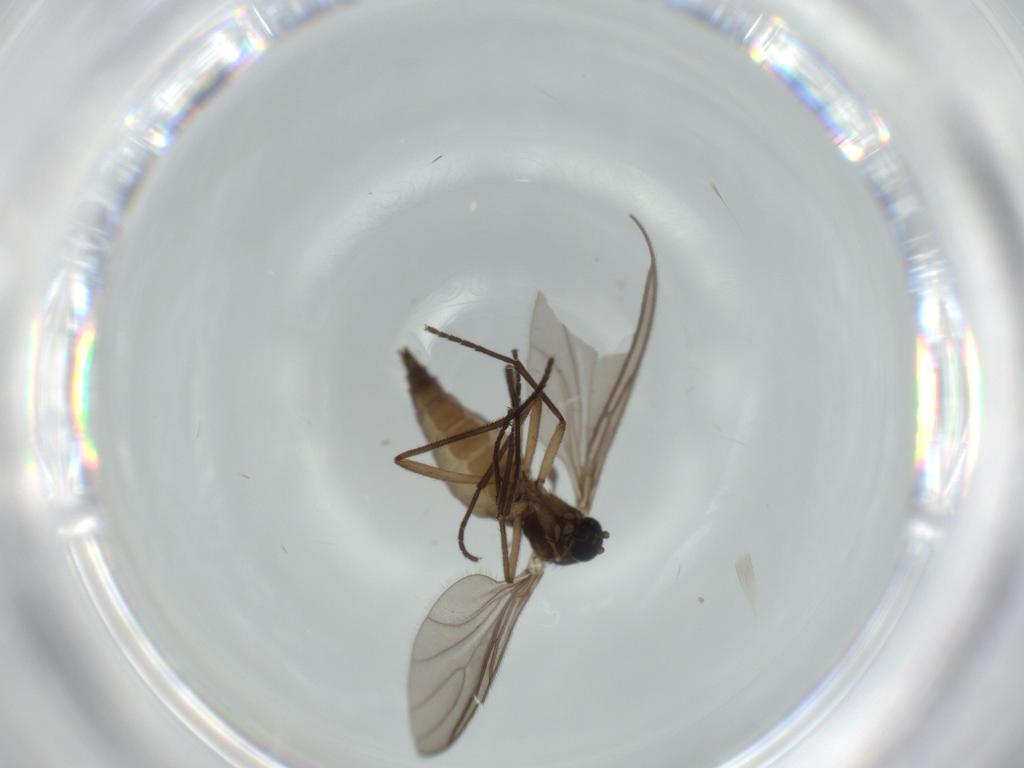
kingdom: Animalia
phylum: Arthropoda
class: Insecta
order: Diptera
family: Sciaridae
